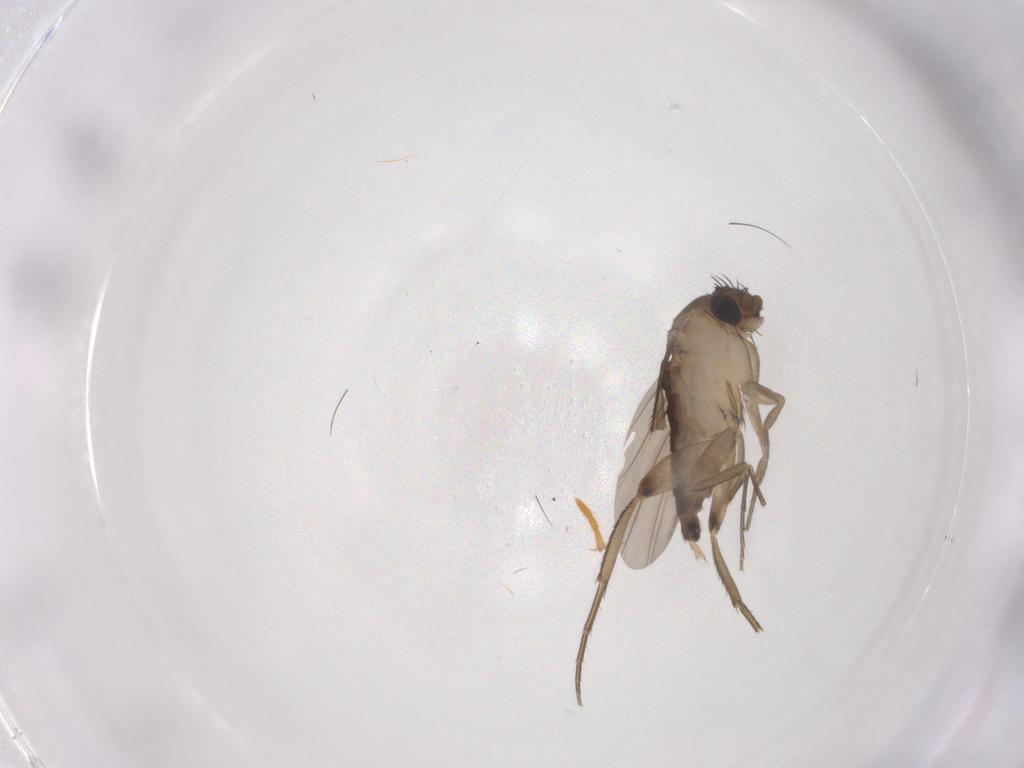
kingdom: Animalia
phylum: Arthropoda
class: Insecta
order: Diptera
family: Phoridae
